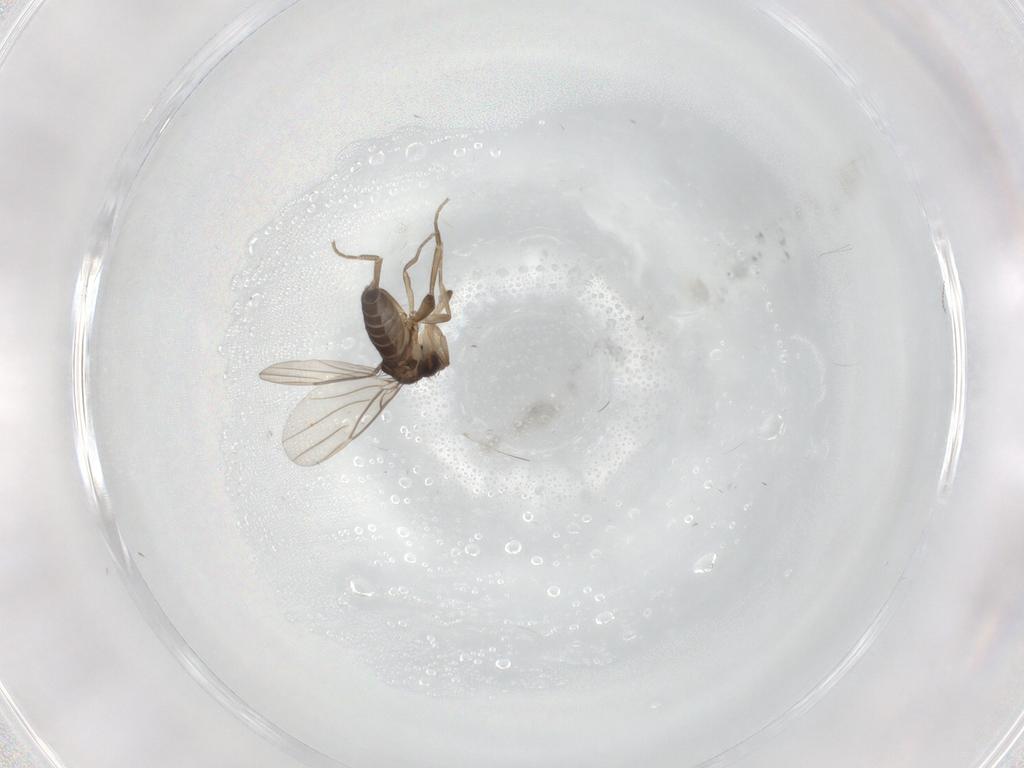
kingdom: Animalia
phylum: Arthropoda
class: Insecta
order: Diptera
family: Cecidomyiidae
